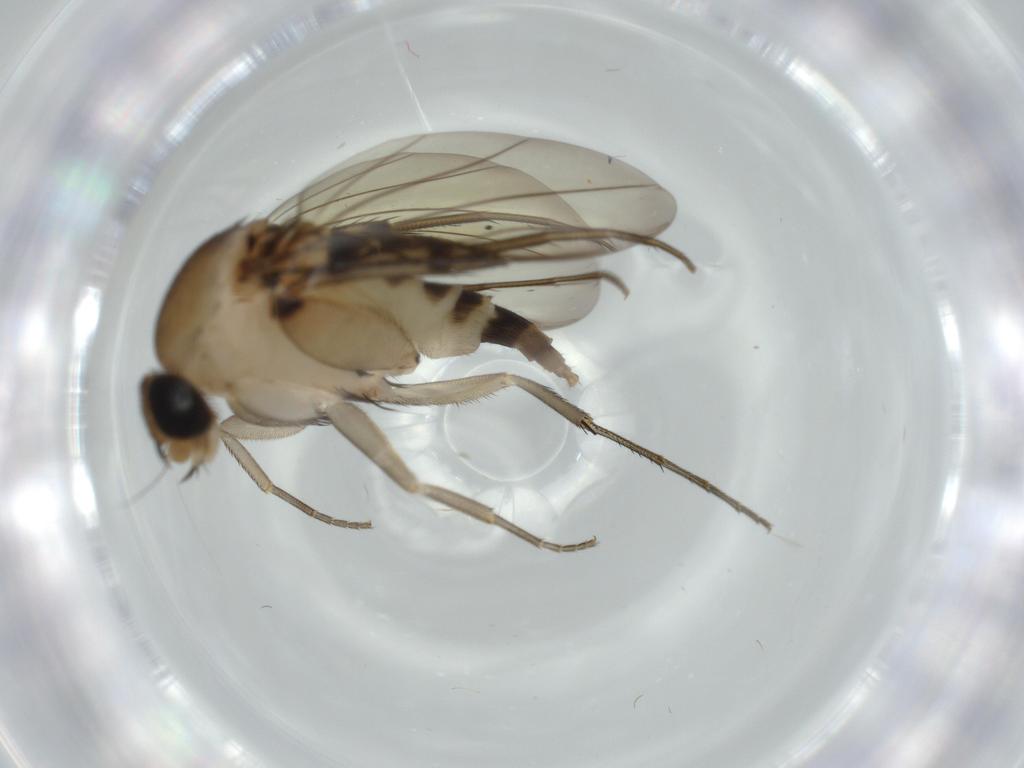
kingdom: Animalia
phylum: Arthropoda
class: Insecta
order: Diptera
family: Phoridae
